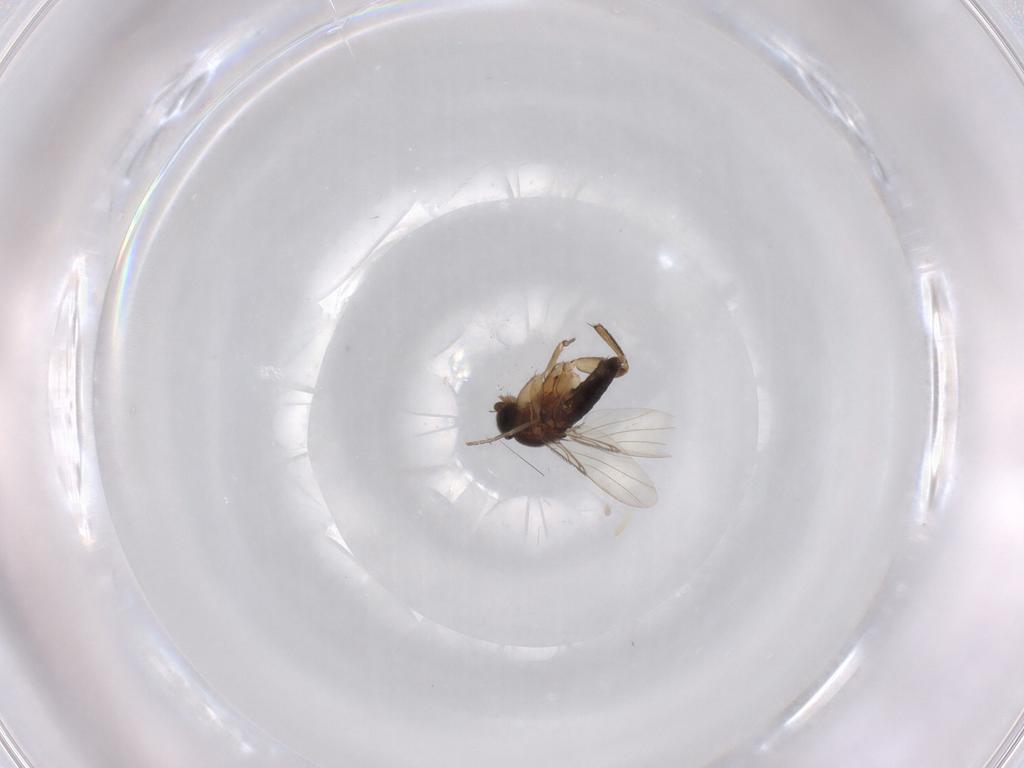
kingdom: Animalia
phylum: Arthropoda
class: Insecta
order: Diptera
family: Phoridae
